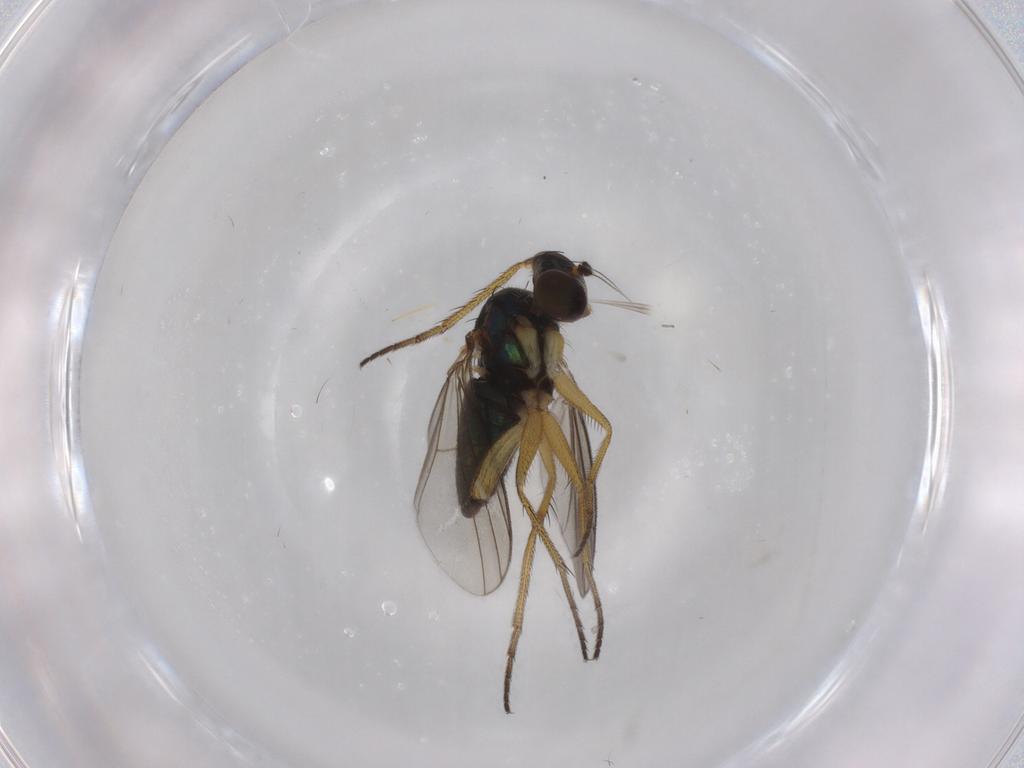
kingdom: Animalia
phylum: Arthropoda
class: Insecta
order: Diptera
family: Dolichopodidae
